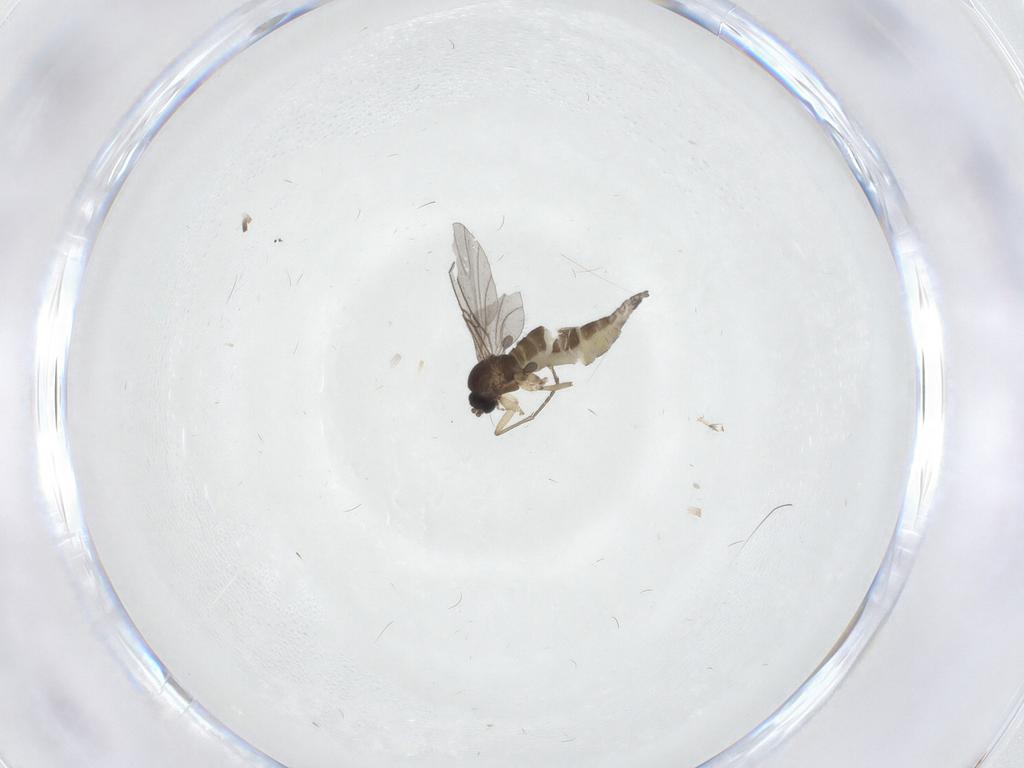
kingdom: Animalia
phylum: Arthropoda
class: Insecta
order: Diptera
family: Sciaridae
